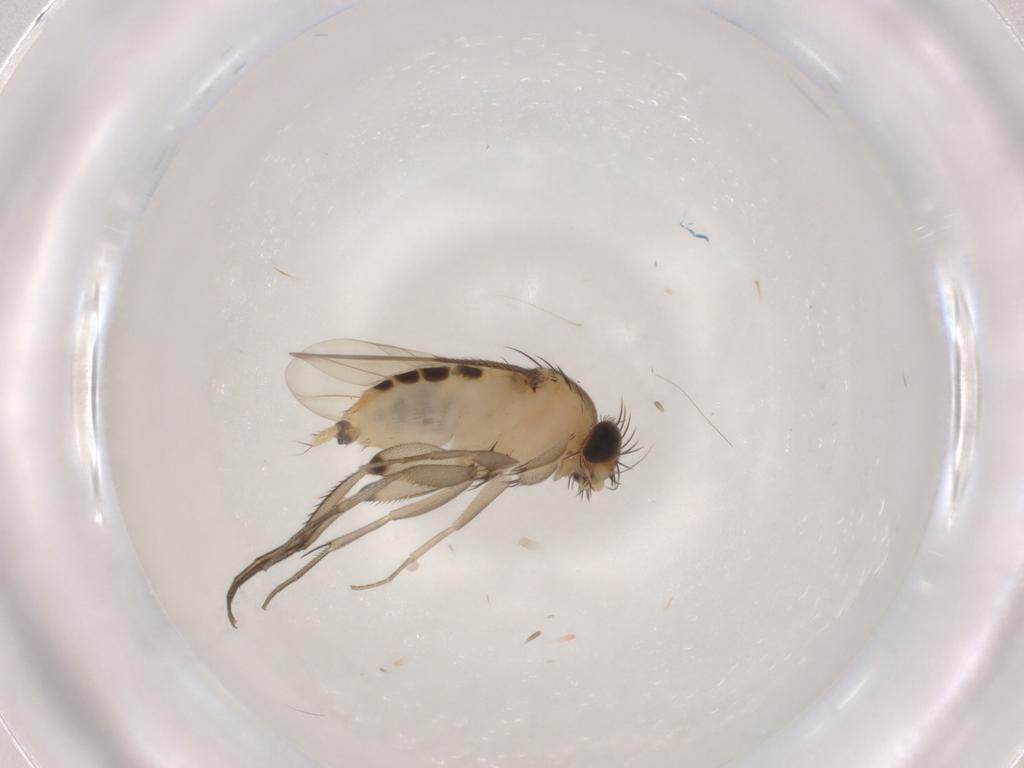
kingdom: Animalia
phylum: Arthropoda
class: Insecta
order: Diptera
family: Phoridae
